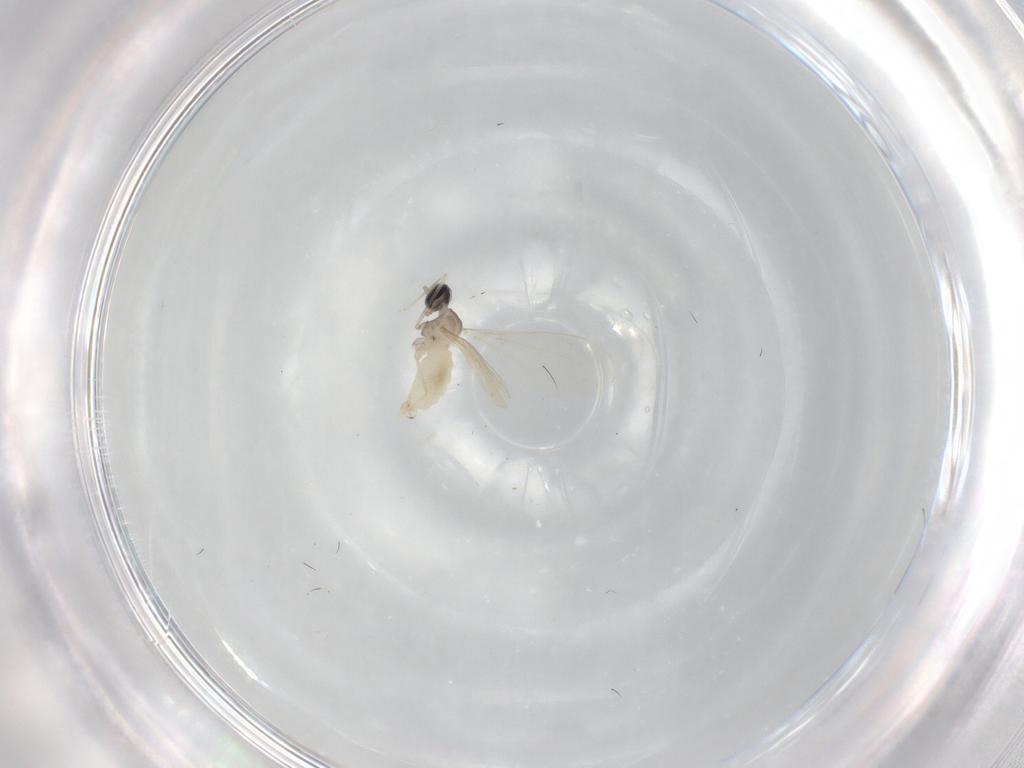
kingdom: Animalia
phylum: Arthropoda
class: Insecta
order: Diptera
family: Cecidomyiidae
